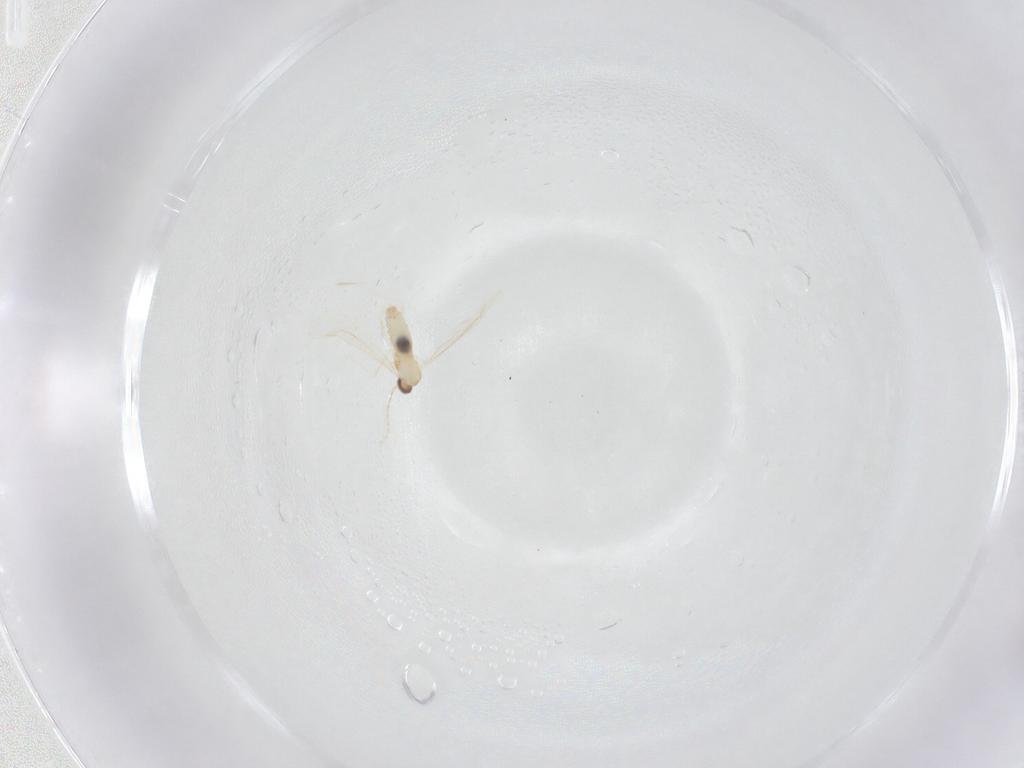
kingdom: Animalia
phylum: Arthropoda
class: Insecta
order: Diptera
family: Cecidomyiidae
